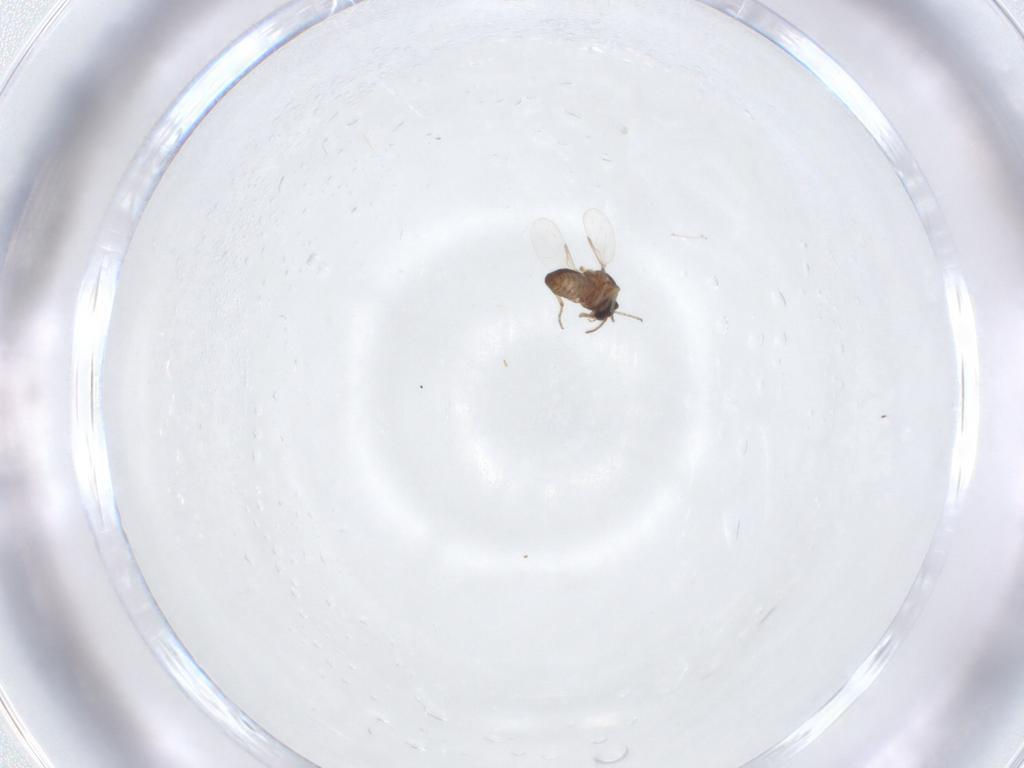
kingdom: Animalia
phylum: Arthropoda
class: Insecta
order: Diptera
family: Ceratopogonidae
